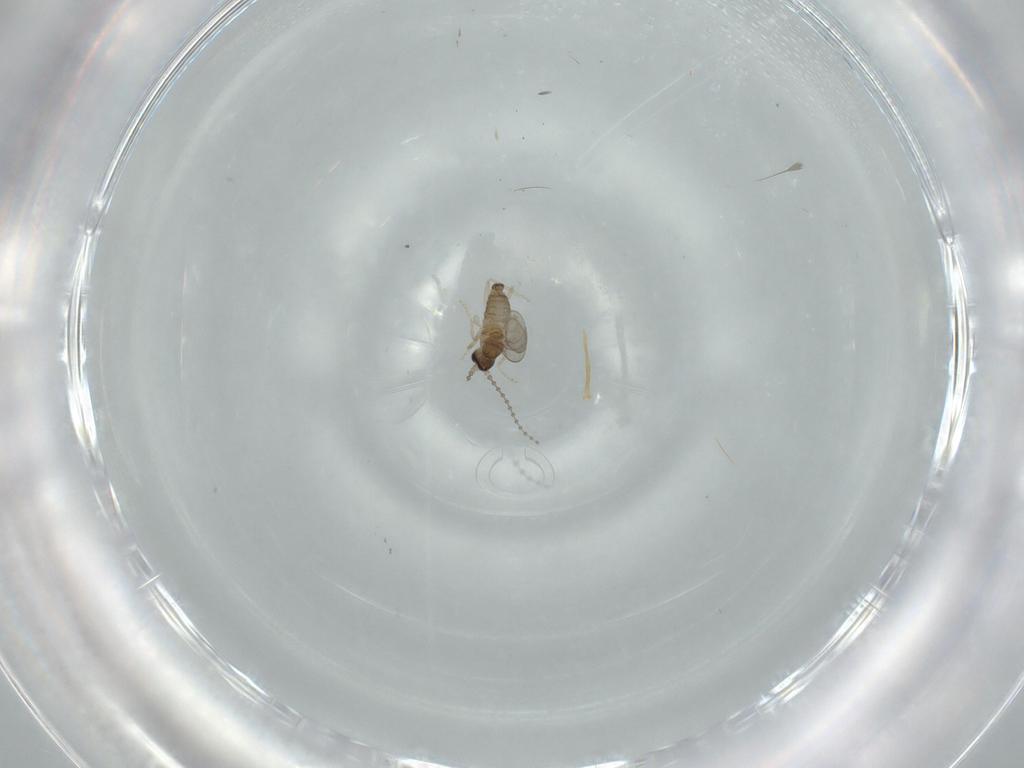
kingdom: Animalia
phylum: Arthropoda
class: Insecta
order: Diptera
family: Cecidomyiidae
